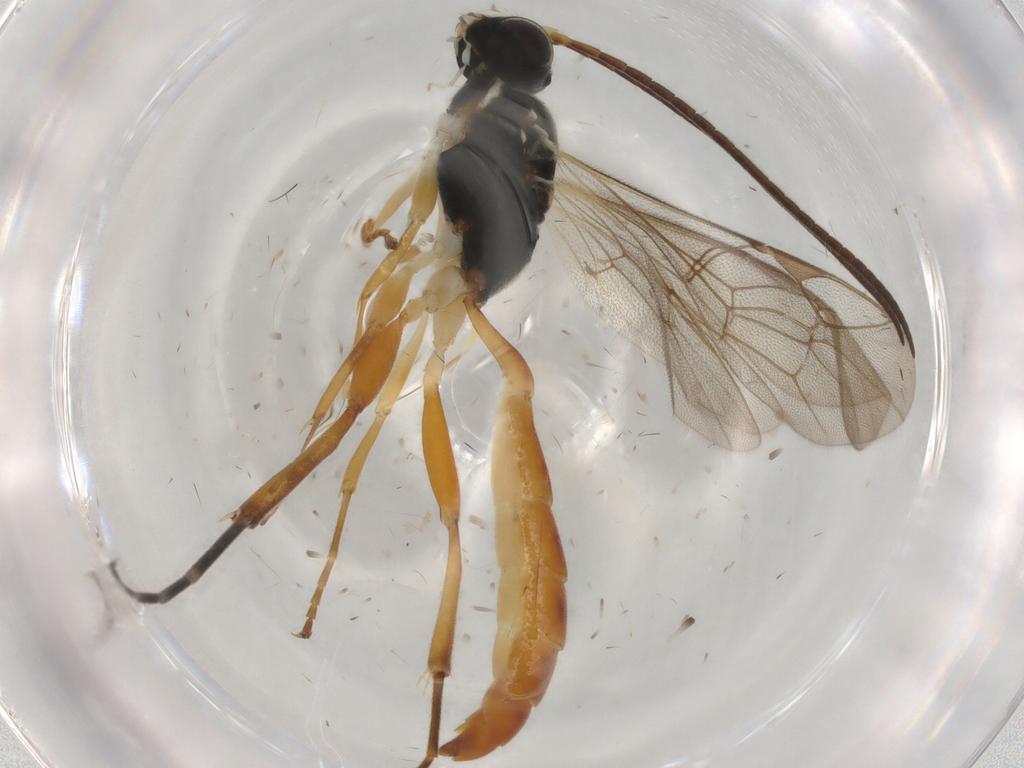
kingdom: Animalia
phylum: Arthropoda
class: Insecta
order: Hymenoptera
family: Ichneumonidae
